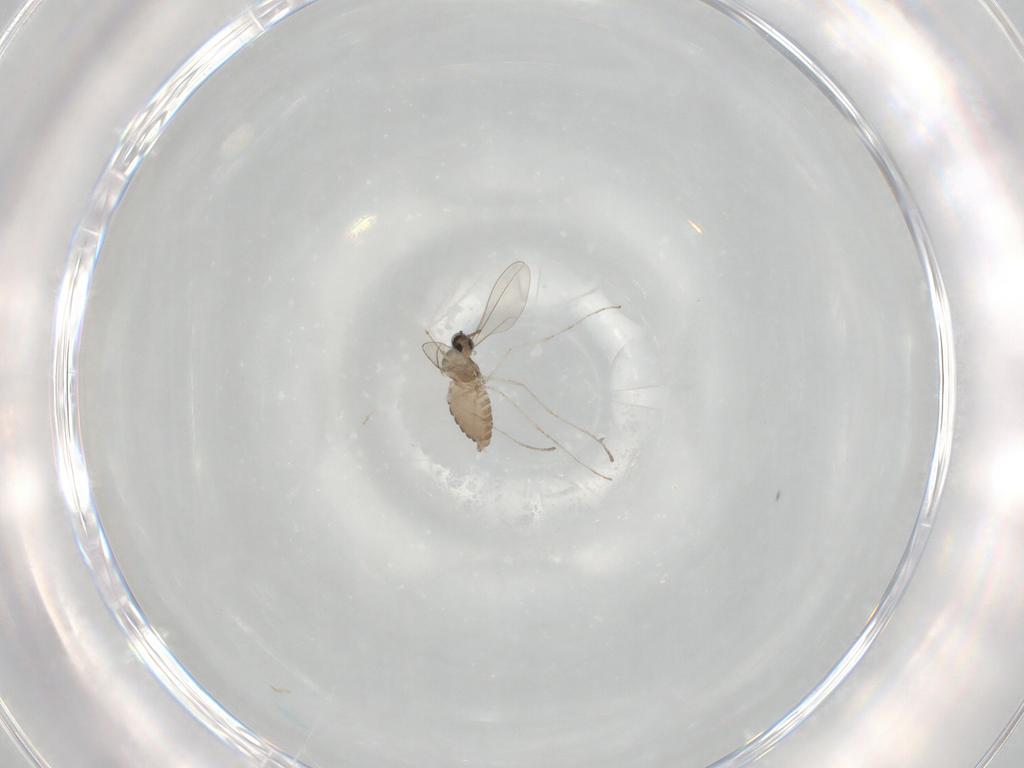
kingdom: Animalia
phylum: Arthropoda
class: Insecta
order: Diptera
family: Cecidomyiidae
